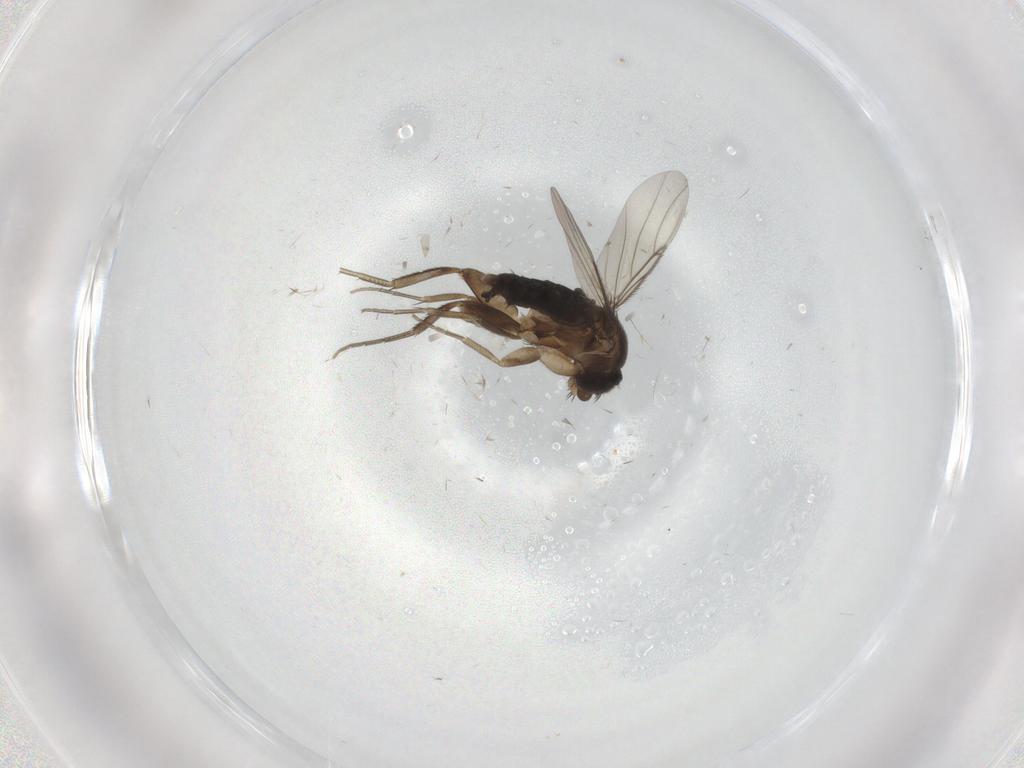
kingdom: Animalia
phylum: Arthropoda
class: Insecta
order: Diptera
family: Phoridae
